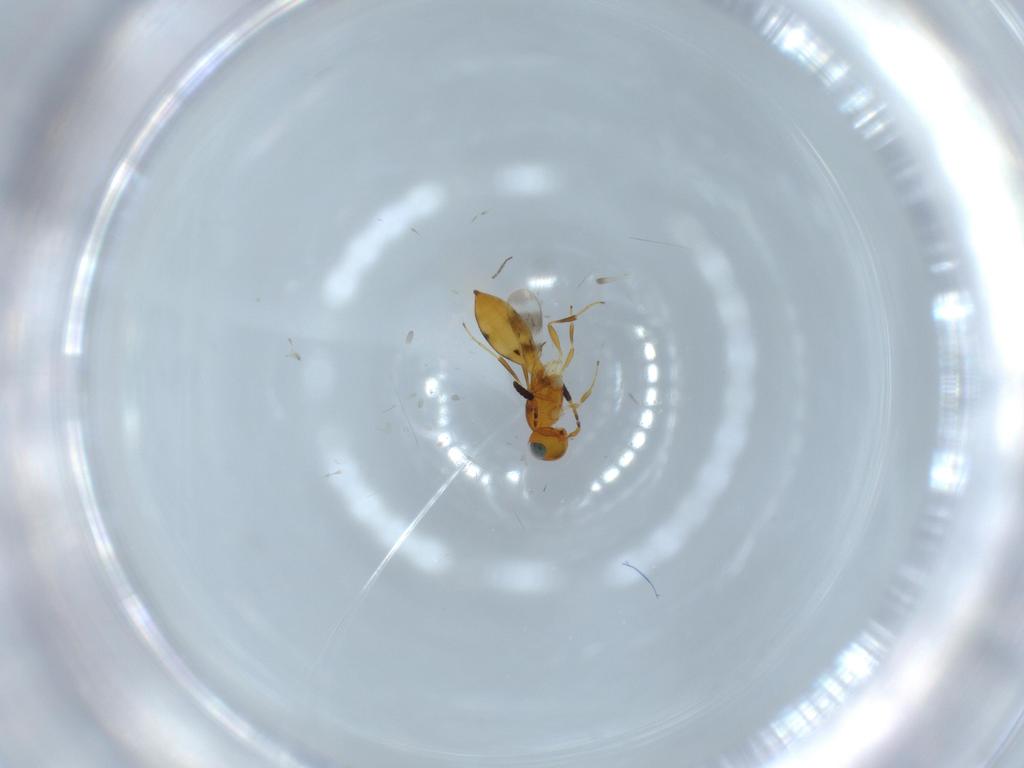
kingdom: Animalia
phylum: Arthropoda
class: Insecta
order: Hymenoptera
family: Scelionidae
